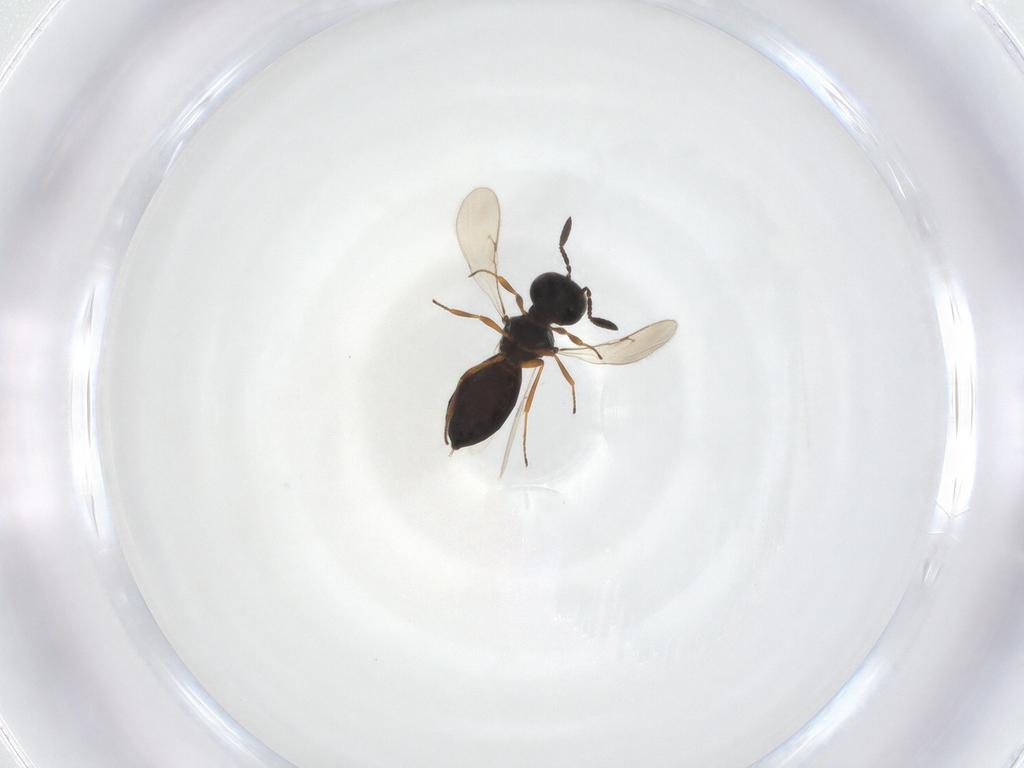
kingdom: Animalia
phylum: Arthropoda
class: Insecta
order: Hymenoptera
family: Scelionidae
